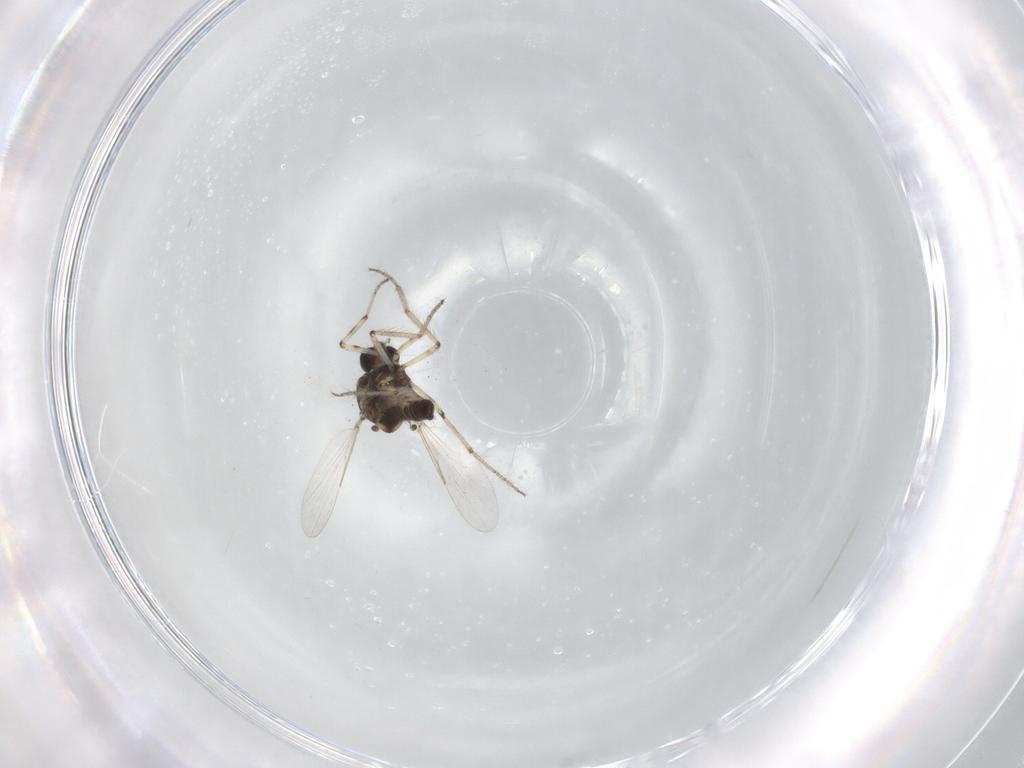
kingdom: Animalia
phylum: Arthropoda
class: Insecta
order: Diptera
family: Ceratopogonidae
